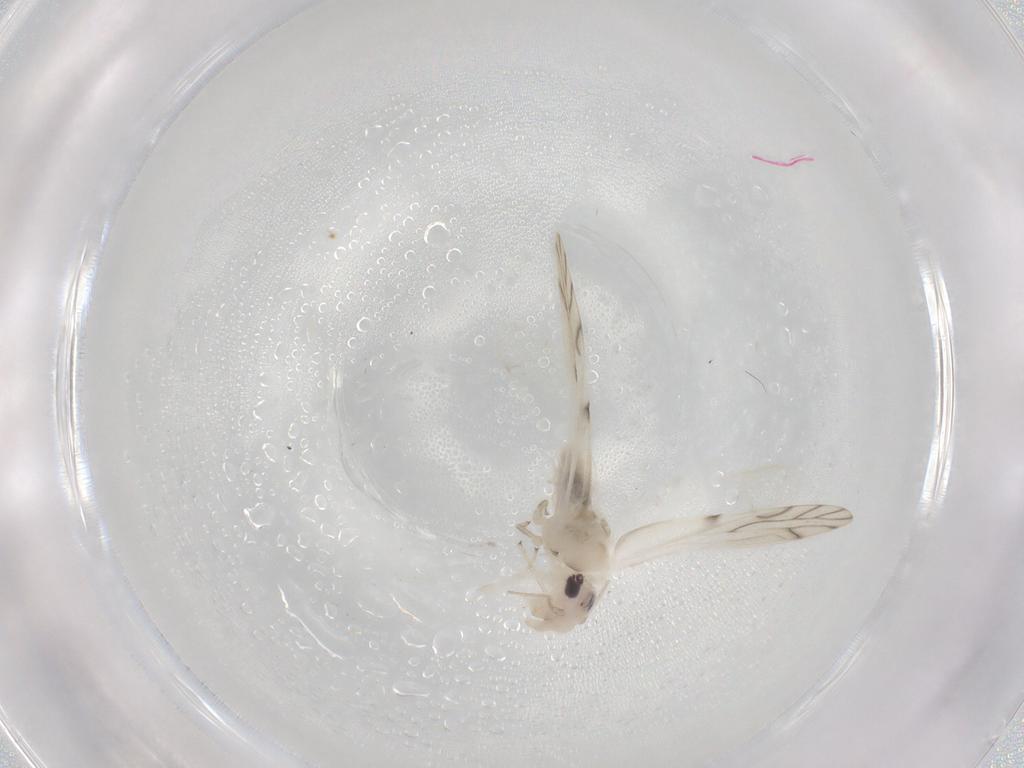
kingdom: Animalia
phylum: Arthropoda
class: Insecta
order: Psocodea
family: Caeciliusidae
